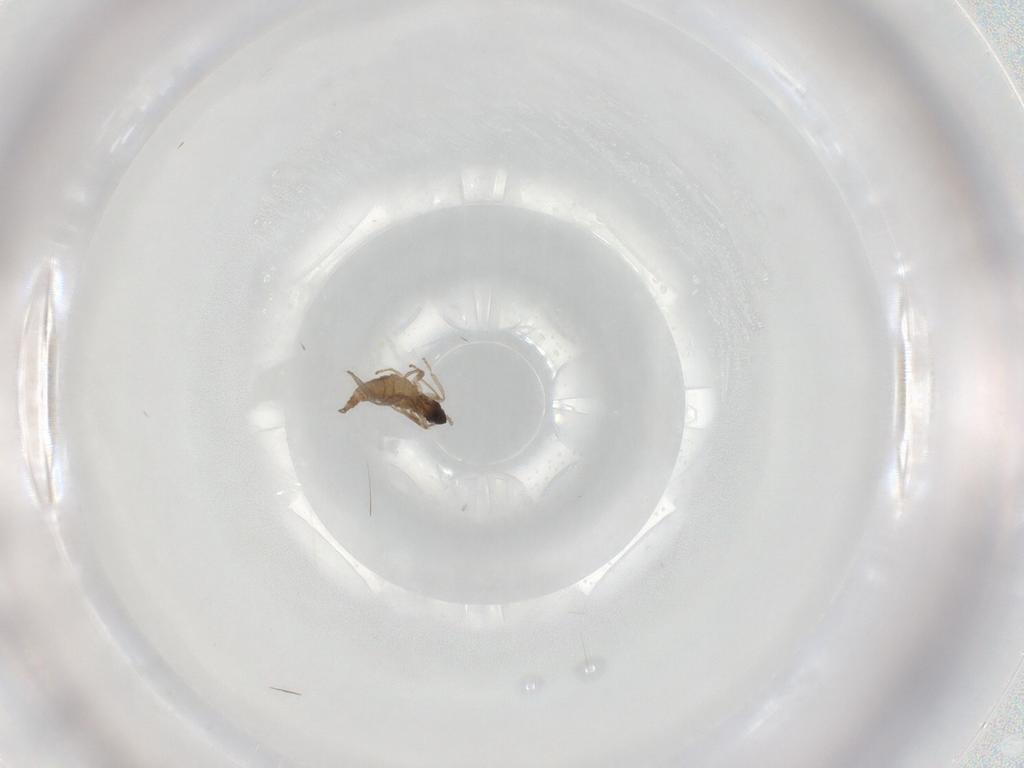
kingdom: Animalia
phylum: Arthropoda
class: Insecta
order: Diptera
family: Cecidomyiidae
